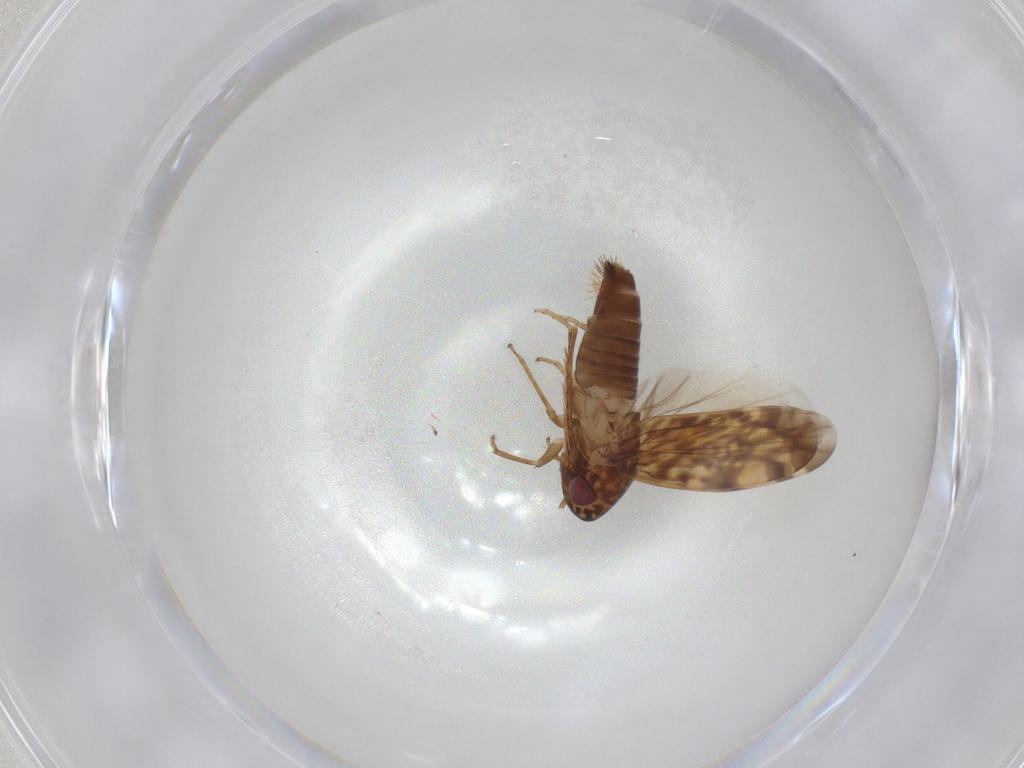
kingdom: Animalia
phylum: Arthropoda
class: Insecta
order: Hemiptera
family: Cicadellidae
